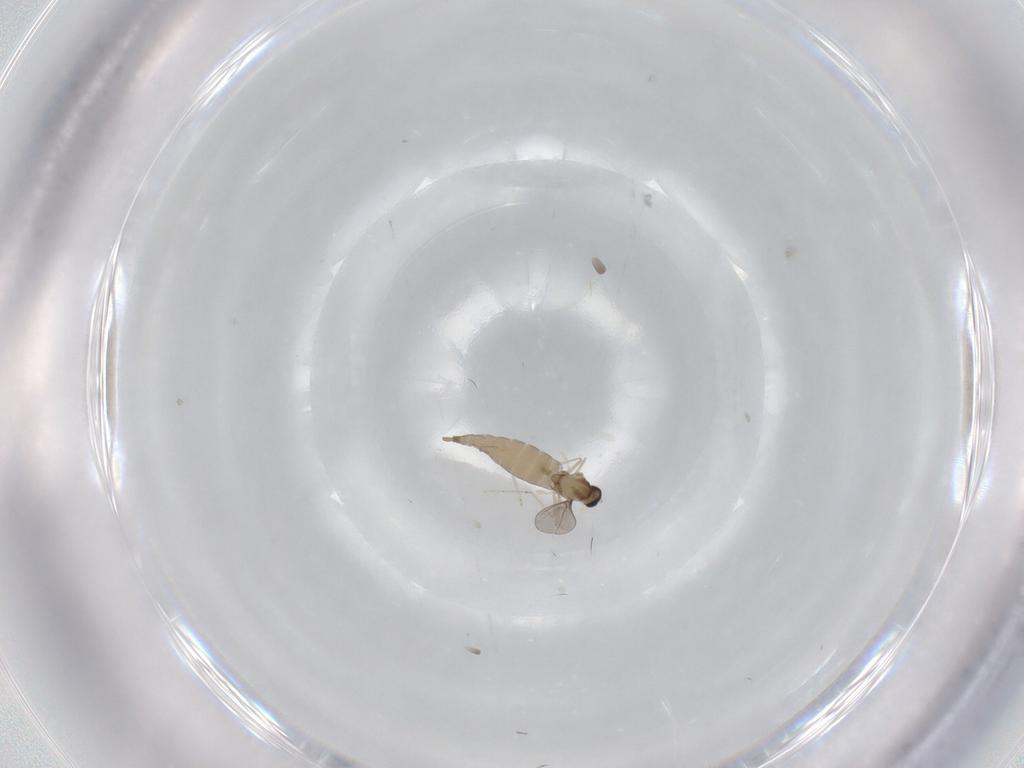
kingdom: Animalia
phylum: Arthropoda
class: Insecta
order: Diptera
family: Cecidomyiidae
